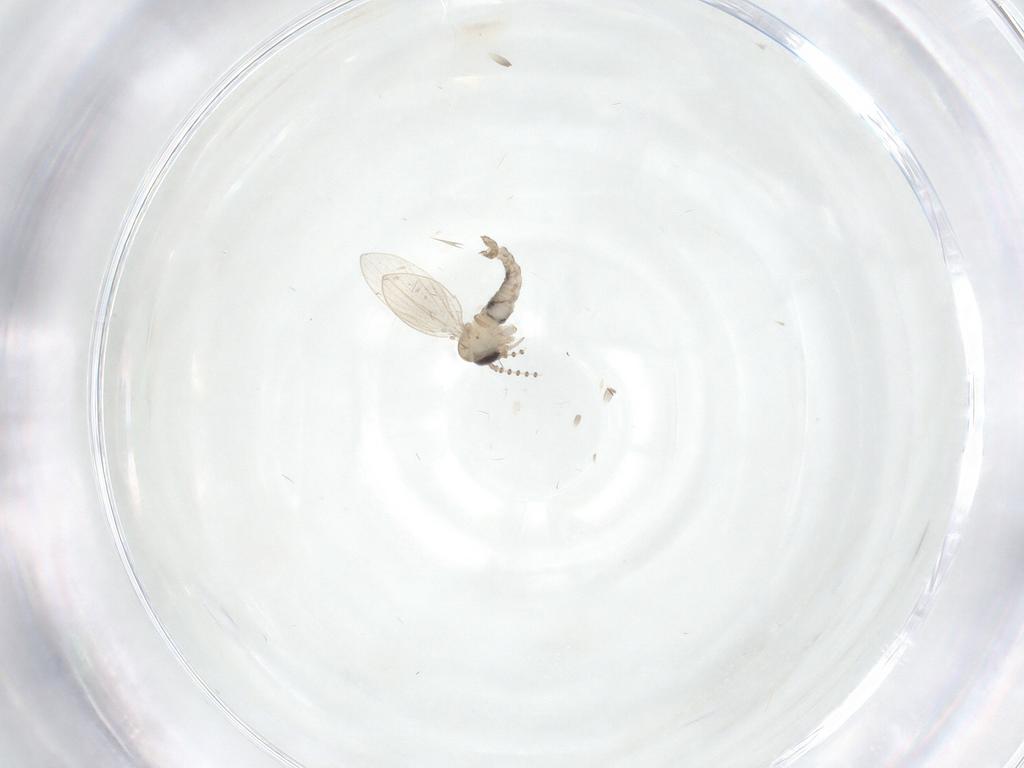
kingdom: Animalia
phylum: Arthropoda
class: Insecta
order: Diptera
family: Psychodidae
